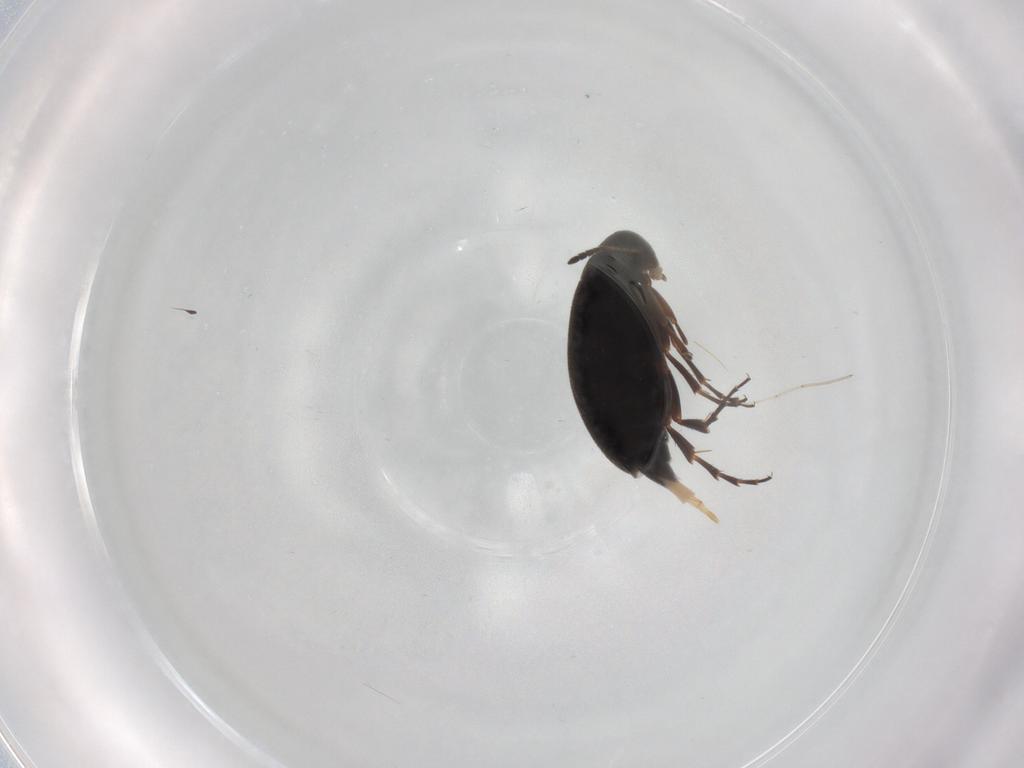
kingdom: Animalia
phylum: Arthropoda
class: Insecta
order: Coleoptera
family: Scraptiidae
